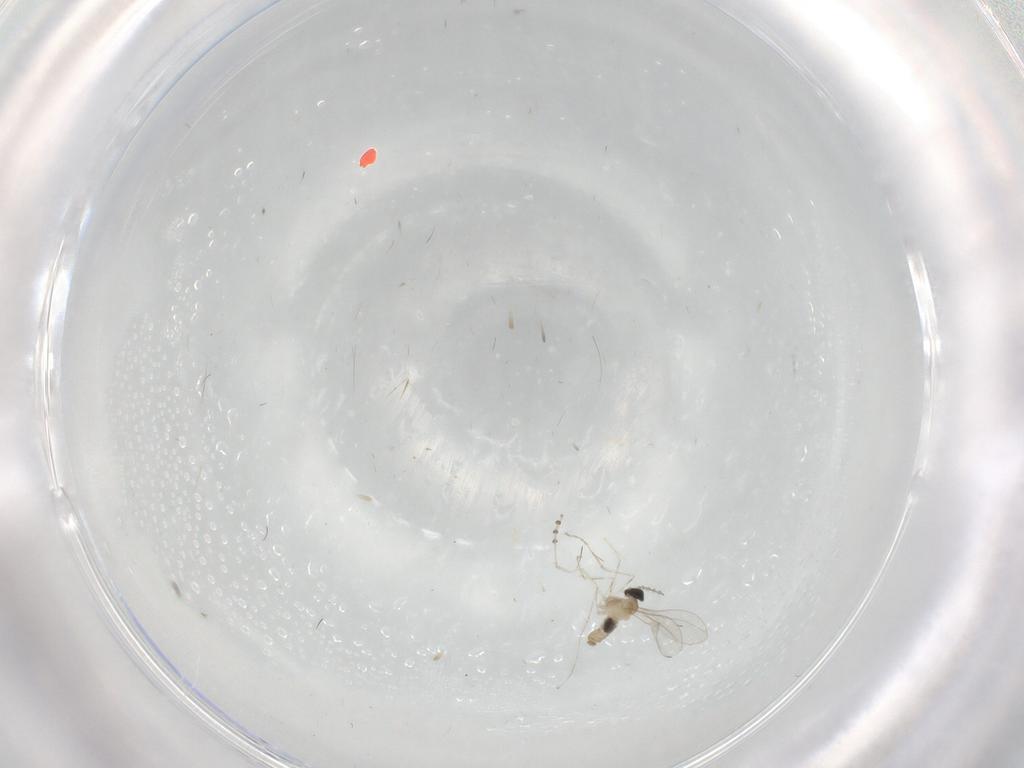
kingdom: Animalia
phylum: Arthropoda
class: Insecta
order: Diptera
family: Cecidomyiidae
